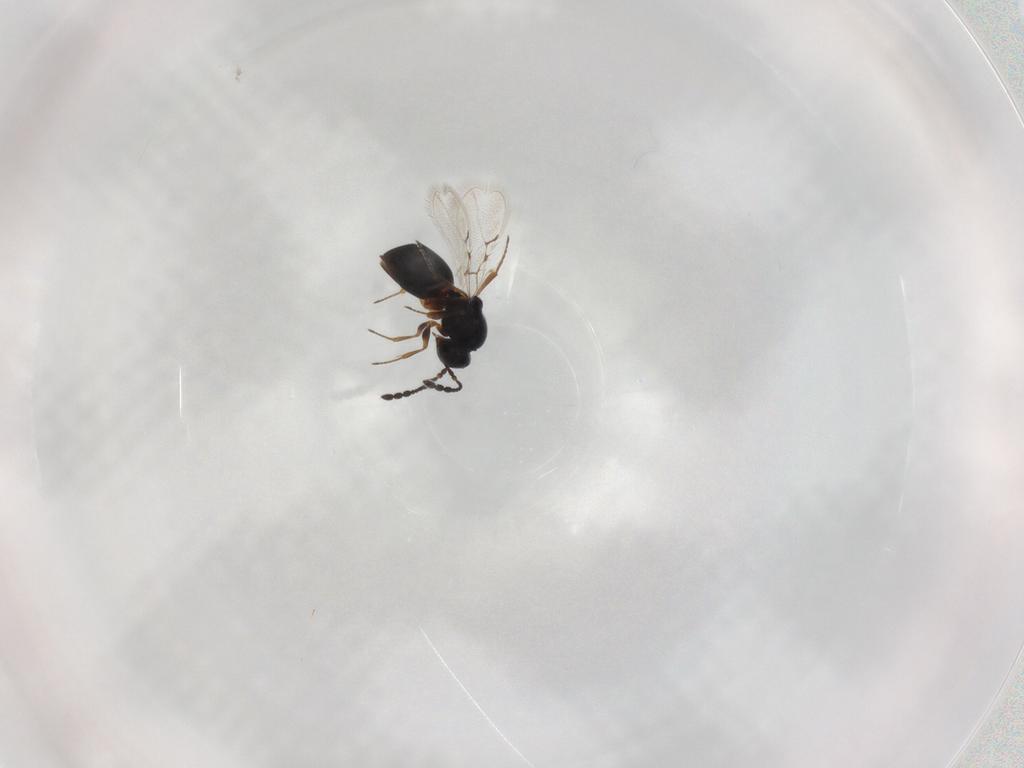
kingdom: Animalia
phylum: Arthropoda
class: Insecta
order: Hymenoptera
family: Figitidae
